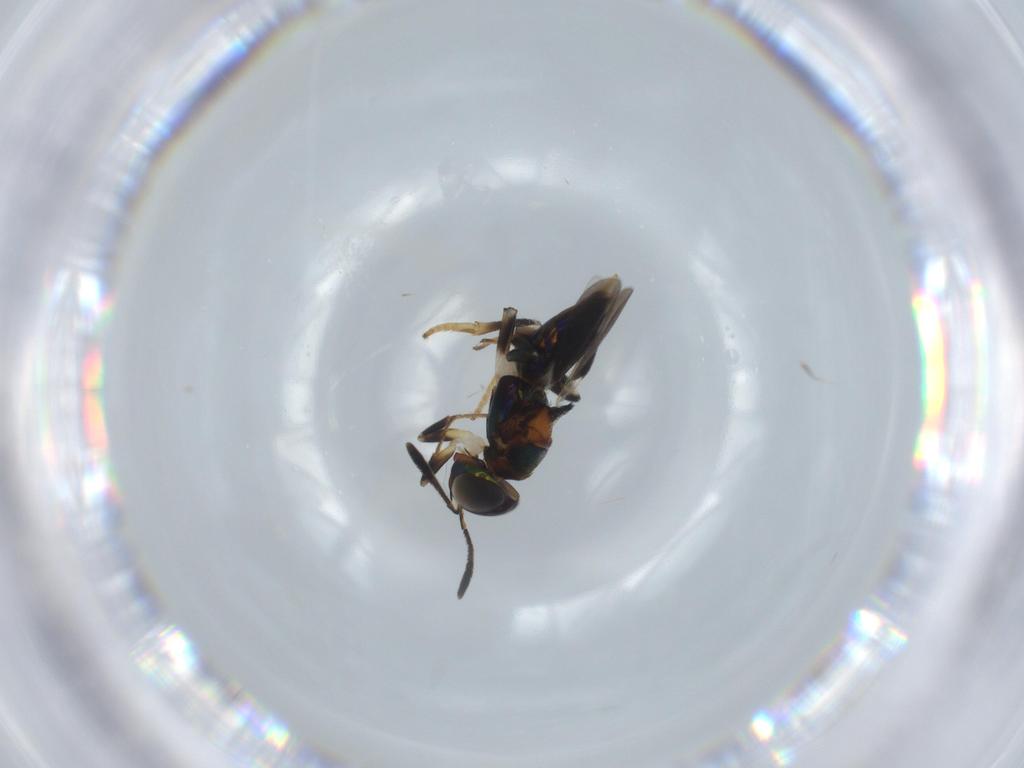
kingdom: Animalia
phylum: Arthropoda
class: Insecta
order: Hymenoptera
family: Encyrtidae
